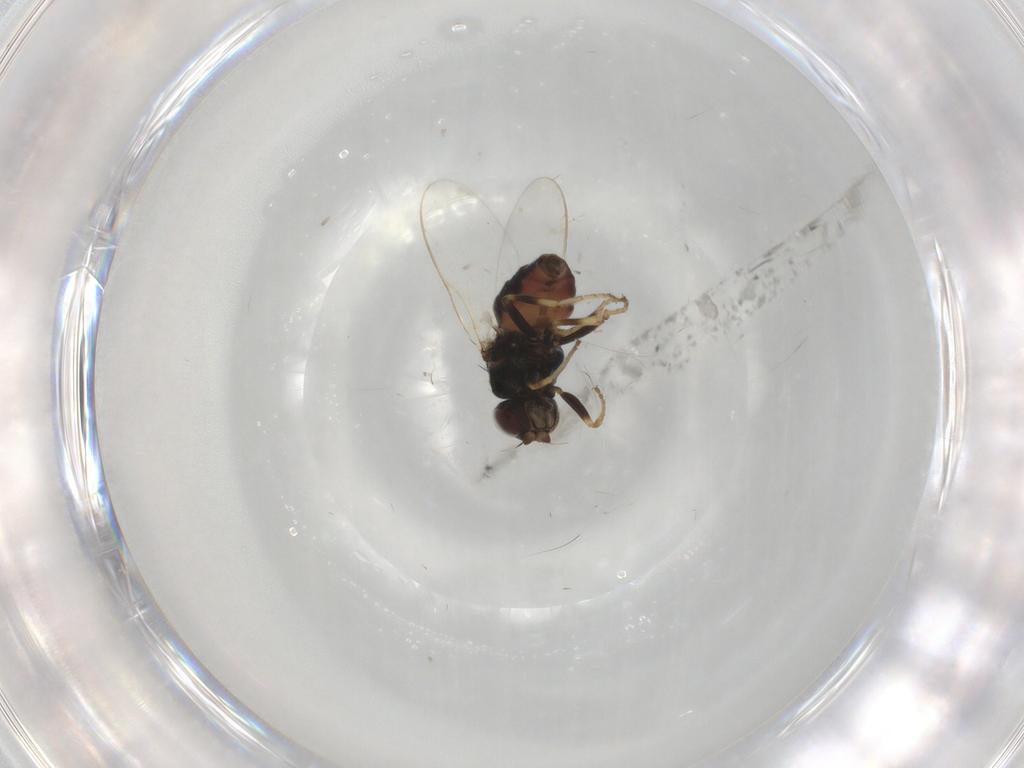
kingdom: Animalia
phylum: Arthropoda
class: Insecta
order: Diptera
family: Chloropidae
